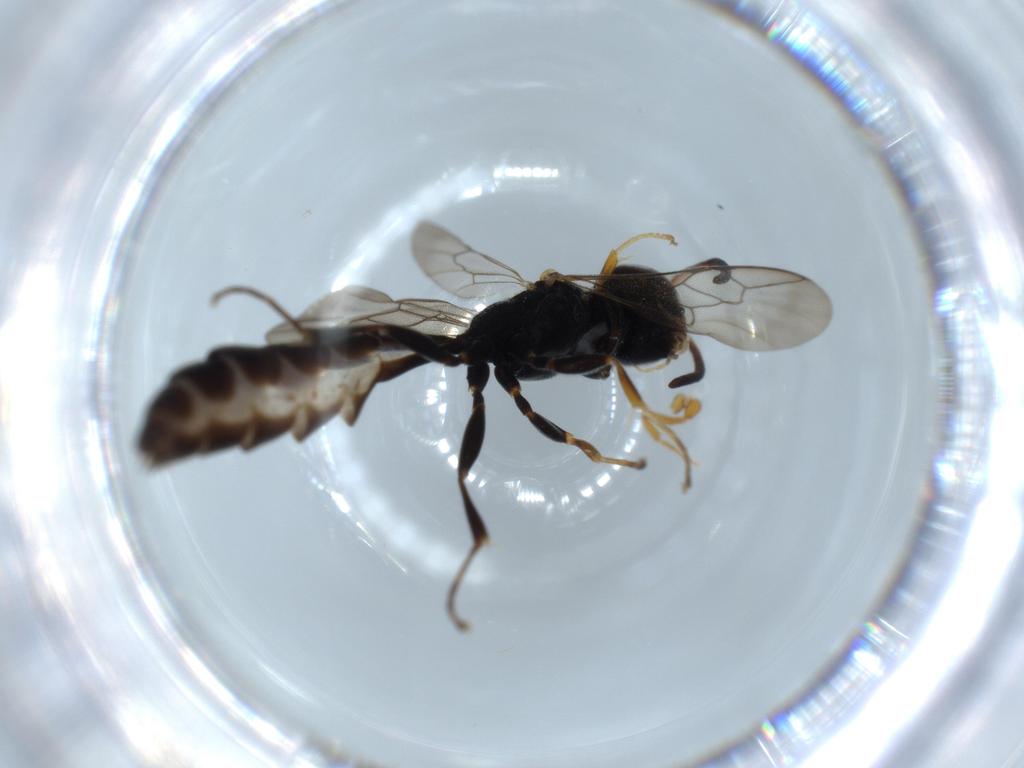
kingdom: Animalia
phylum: Arthropoda
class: Insecta
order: Hymenoptera
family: Crabronidae
